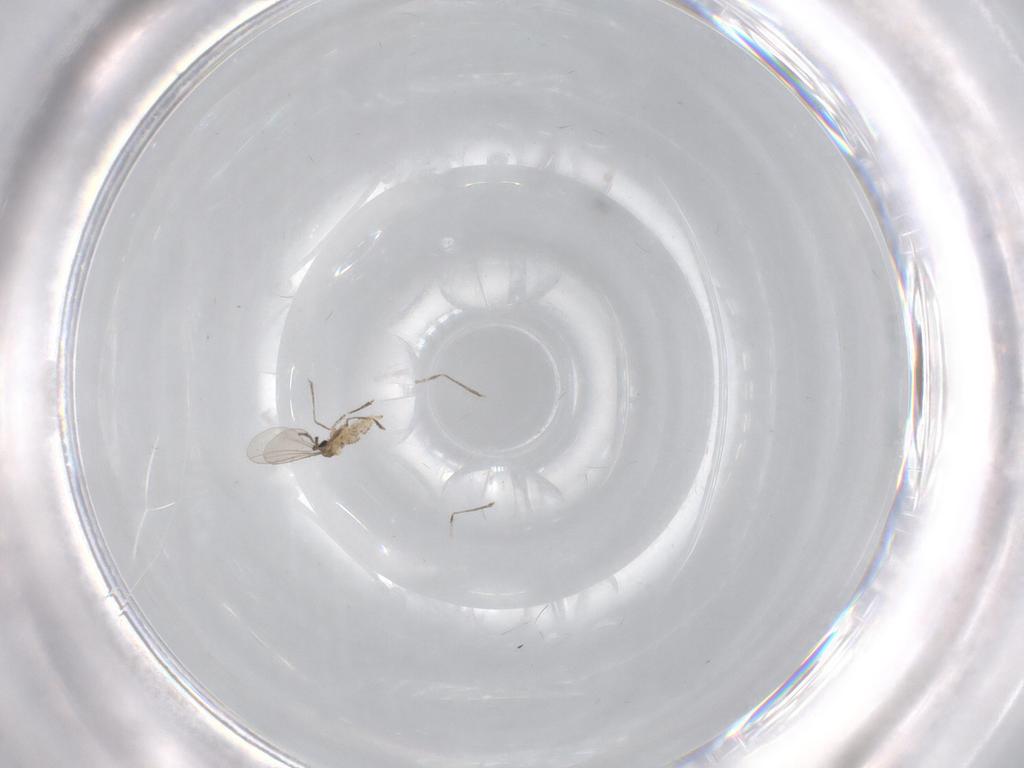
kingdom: Animalia
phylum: Arthropoda
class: Insecta
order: Diptera
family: Cecidomyiidae
